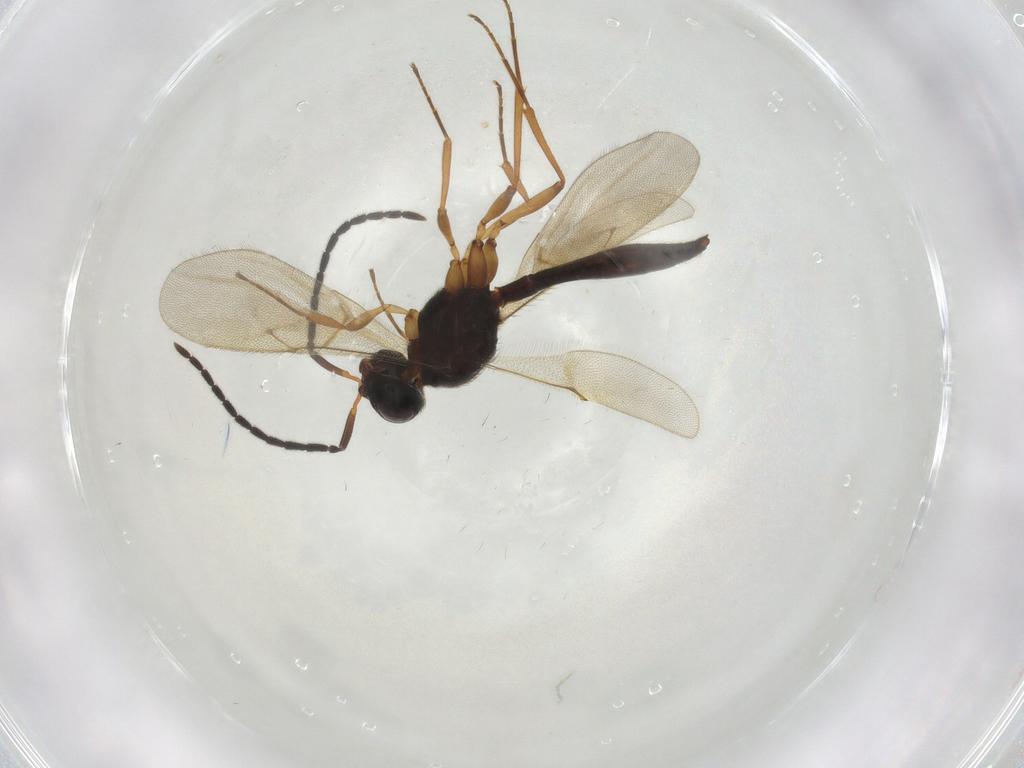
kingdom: Animalia
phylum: Arthropoda
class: Insecta
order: Hymenoptera
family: Scelionidae
